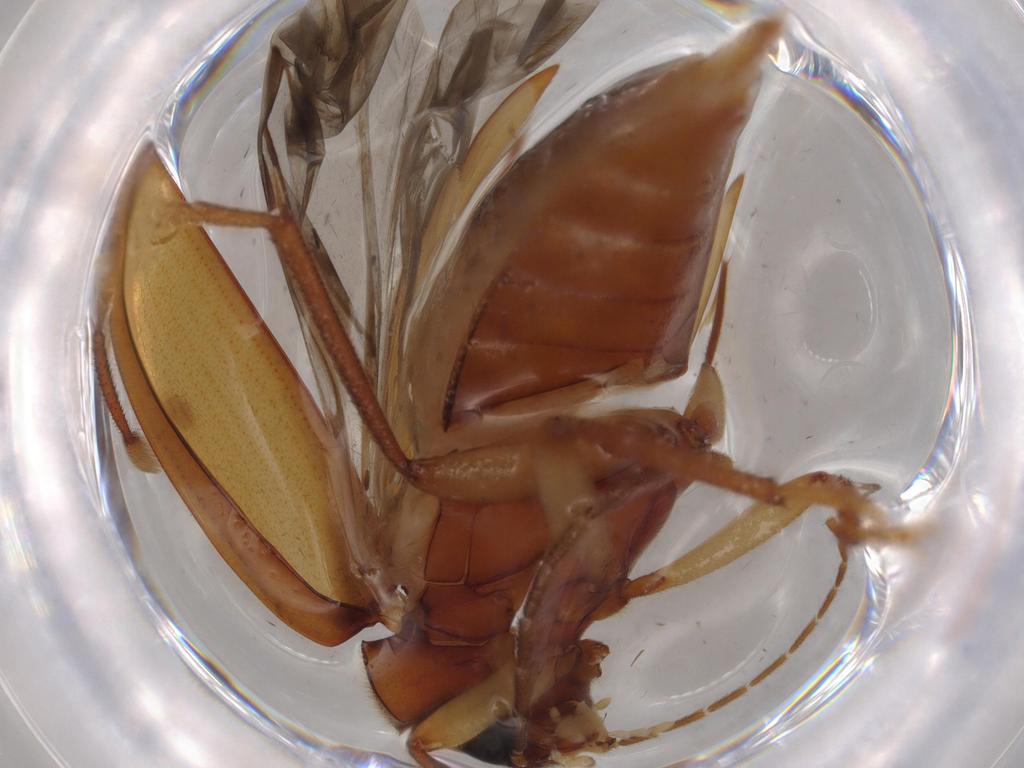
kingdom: Animalia
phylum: Arthropoda
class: Insecta
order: Coleoptera
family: Ptilodactylidae
